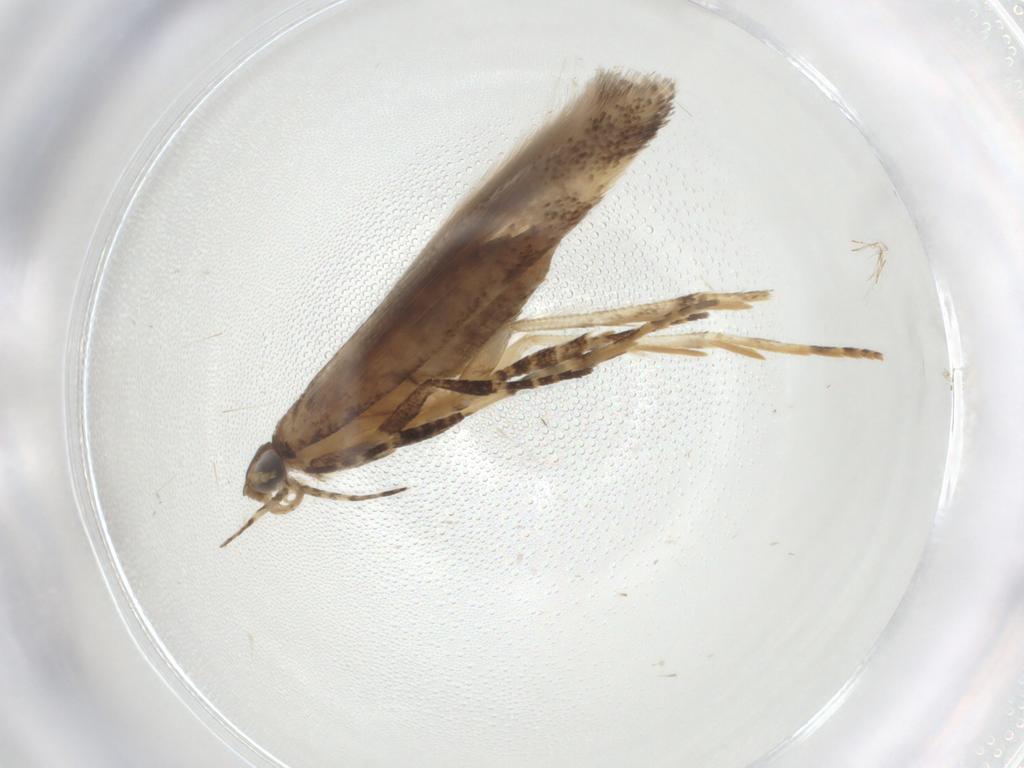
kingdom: Animalia
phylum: Arthropoda
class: Insecta
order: Lepidoptera
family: Gelechiidae
